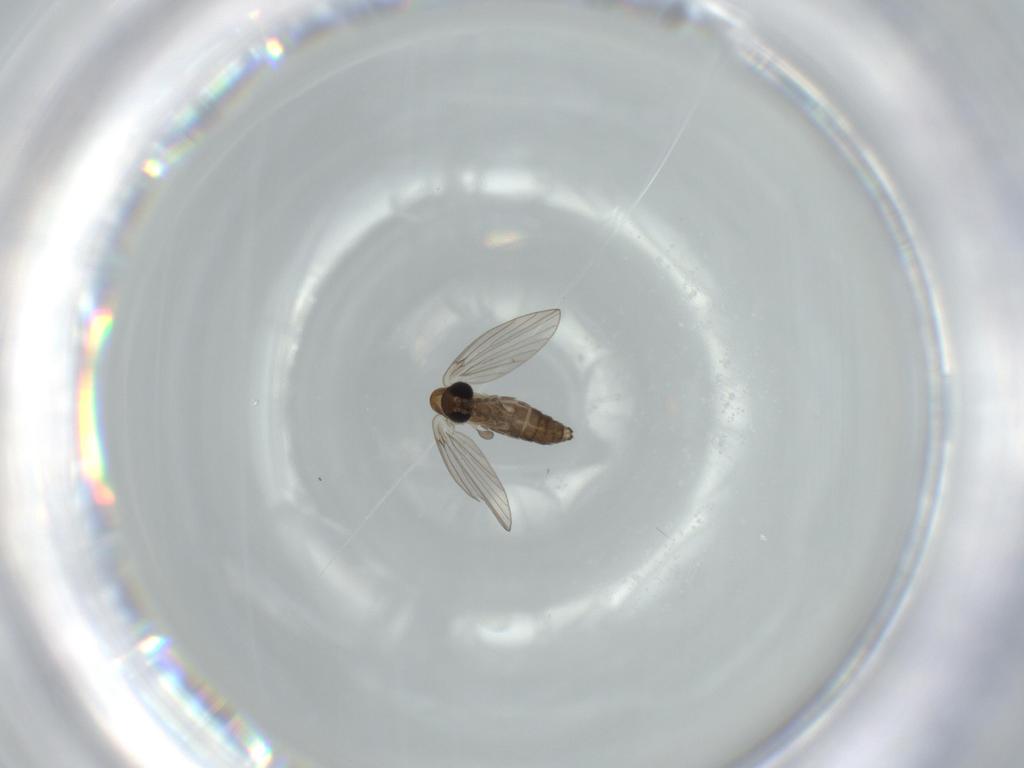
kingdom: Animalia
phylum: Arthropoda
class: Insecta
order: Diptera
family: Psychodidae
